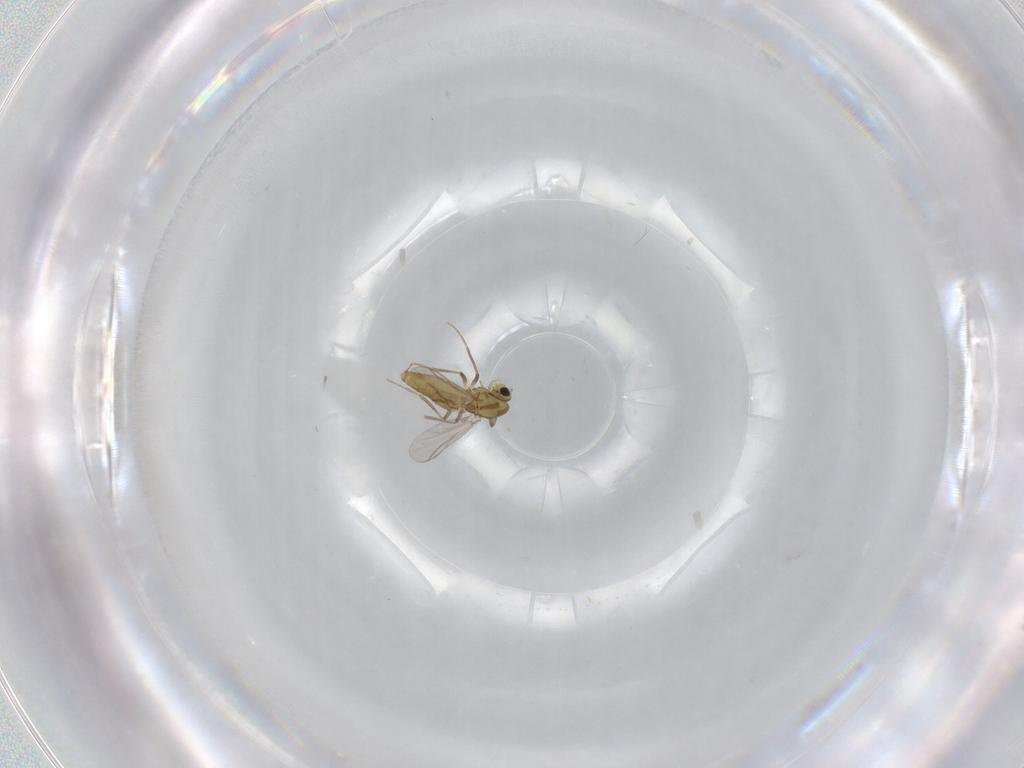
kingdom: Animalia
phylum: Arthropoda
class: Insecta
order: Diptera
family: Chironomidae
